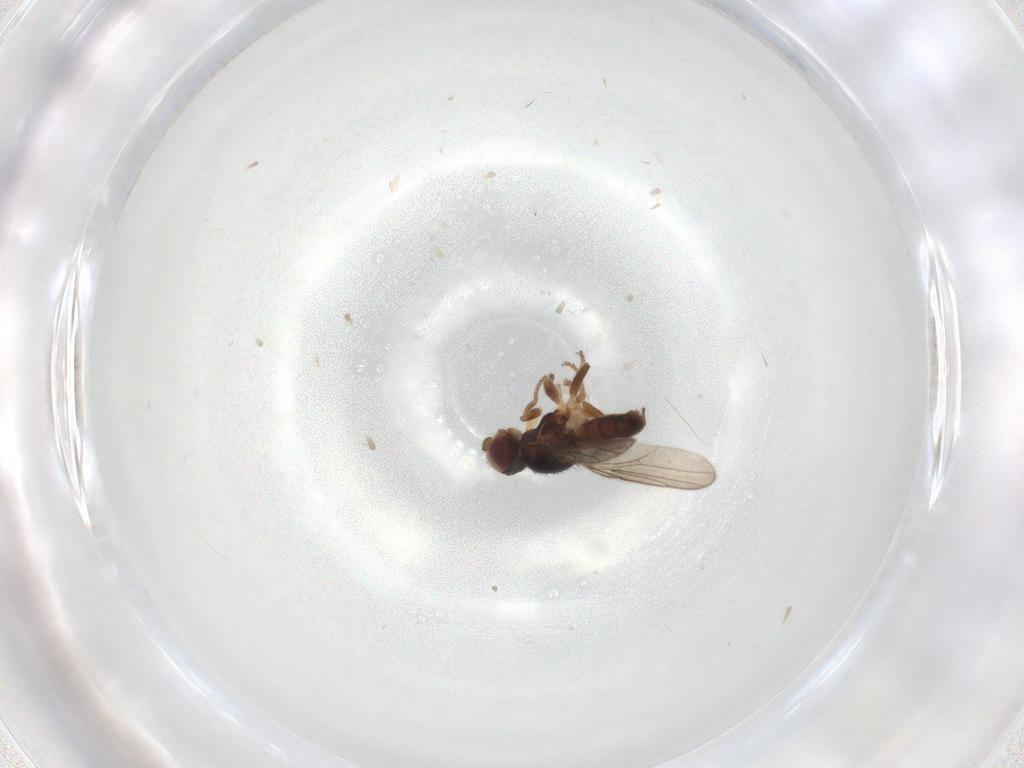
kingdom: Animalia
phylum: Arthropoda
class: Insecta
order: Diptera
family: Chloropidae
